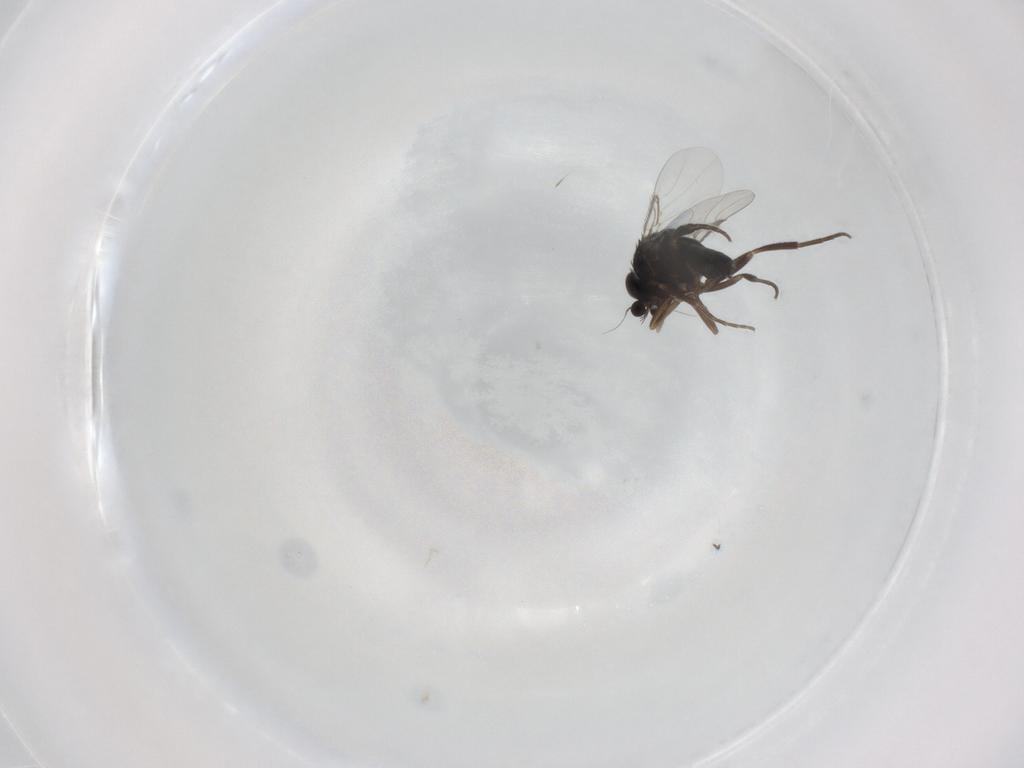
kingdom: Animalia
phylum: Arthropoda
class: Insecta
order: Diptera
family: Phoridae
